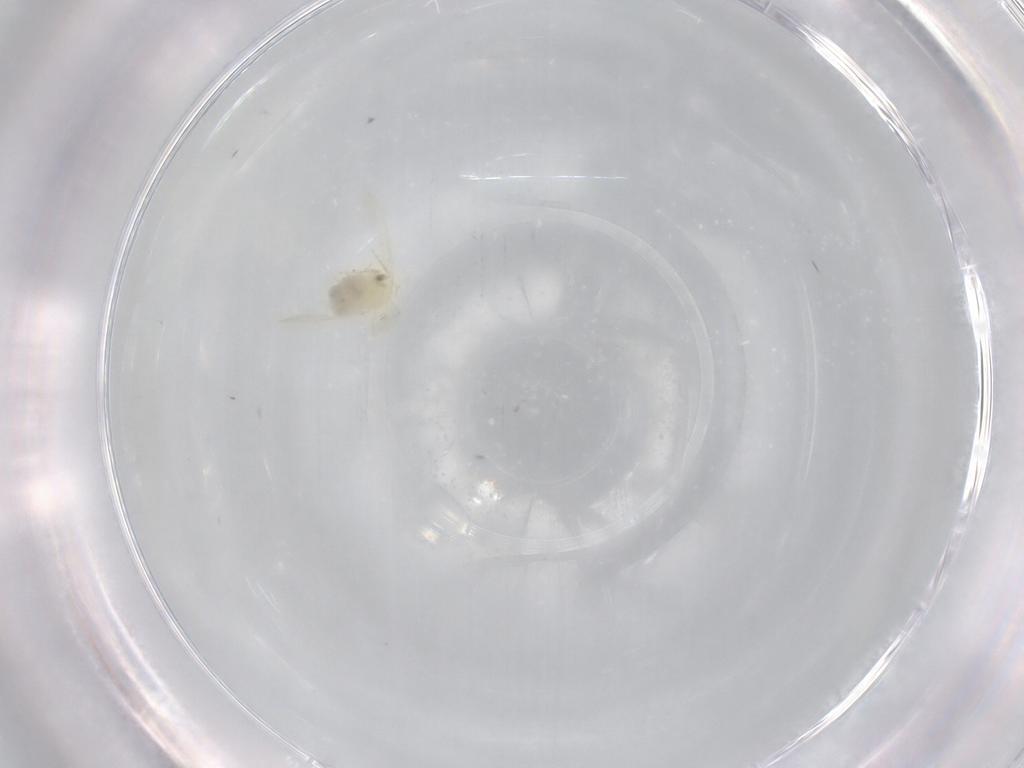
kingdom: Animalia
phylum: Arthropoda
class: Insecta
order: Hemiptera
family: Aleyrodidae
